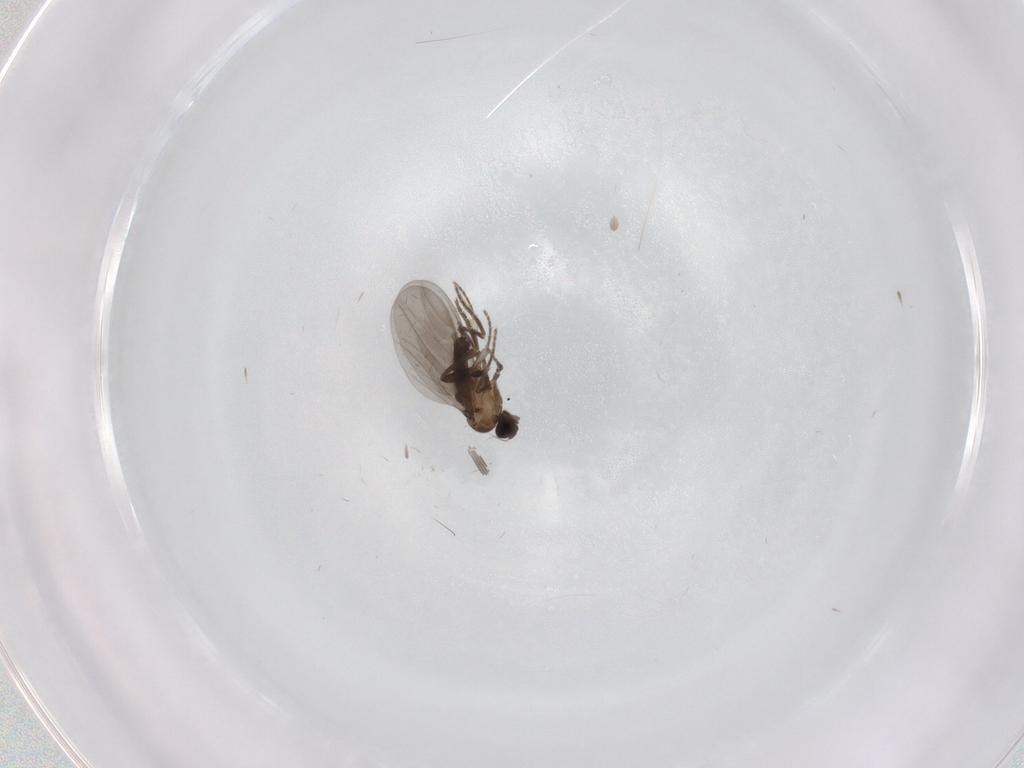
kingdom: Animalia
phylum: Arthropoda
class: Insecta
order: Diptera
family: Phoridae
